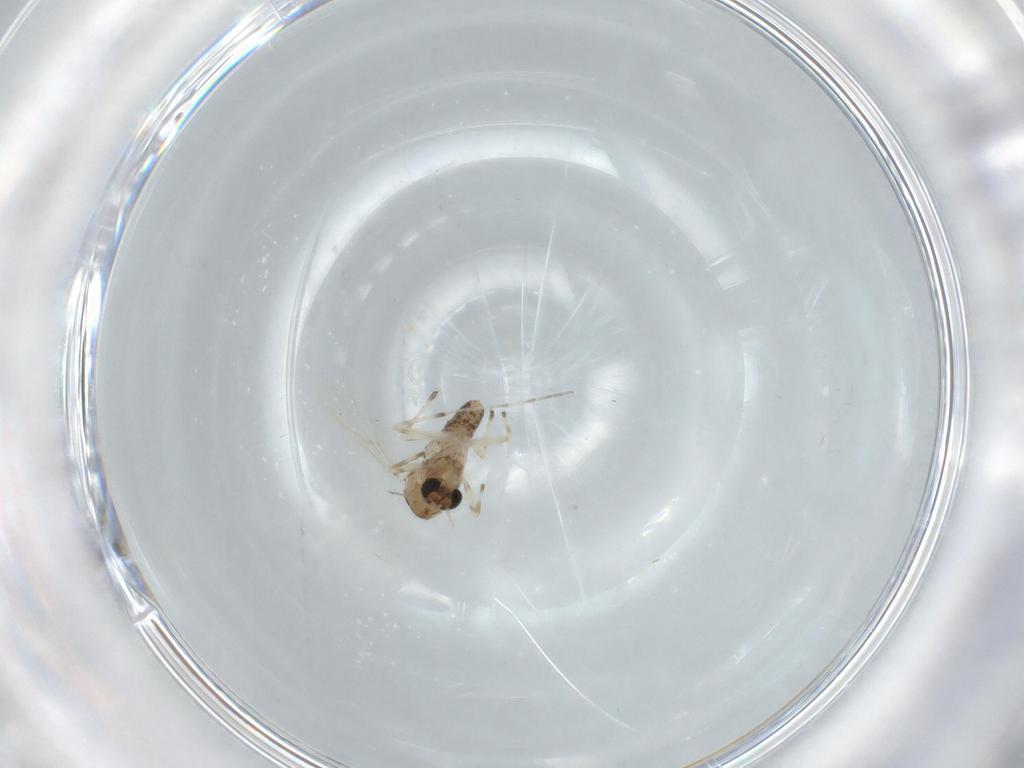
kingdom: Animalia
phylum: Arthropoda
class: Insecta
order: Diptera
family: Chironomidae
